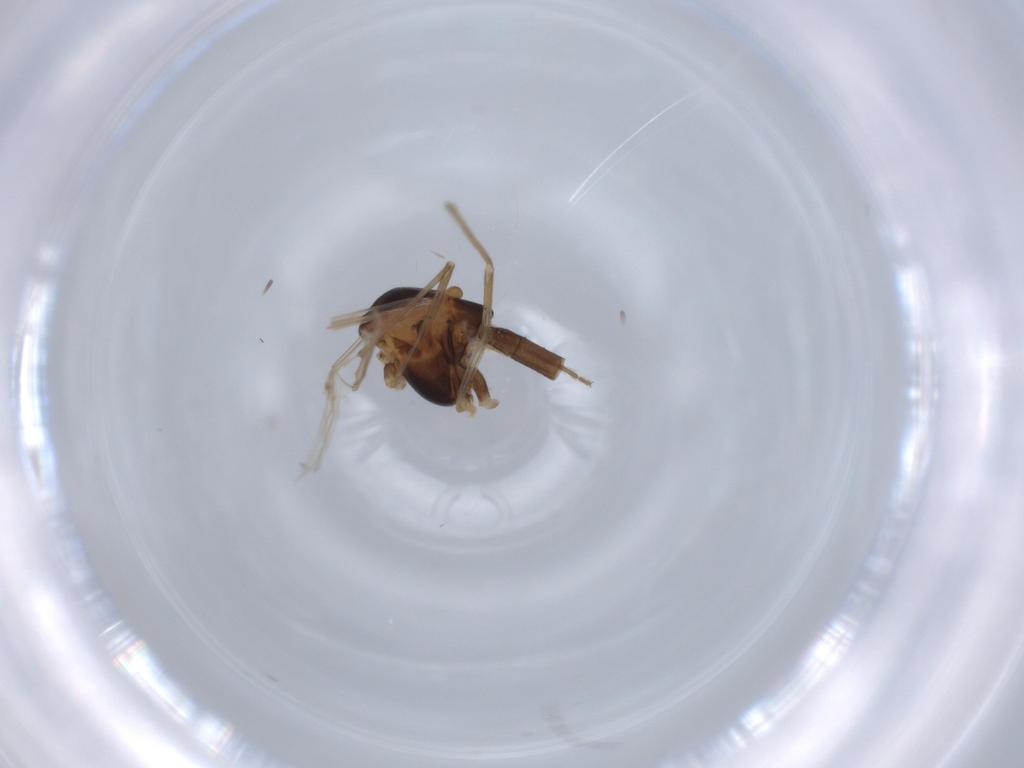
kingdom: Animalia
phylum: Arthropoda
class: Insecta
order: Diptera
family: Chironomidae
